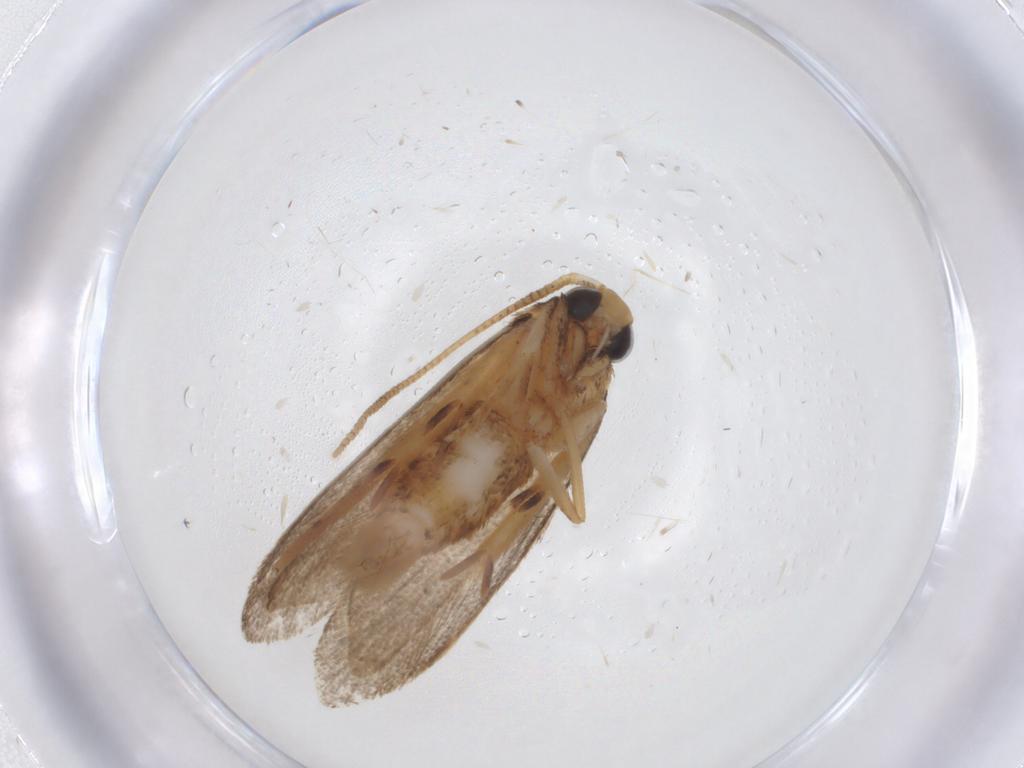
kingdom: Animalia
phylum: Arthropoda
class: Insecta
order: Lepidoptera
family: Oecophoridae
